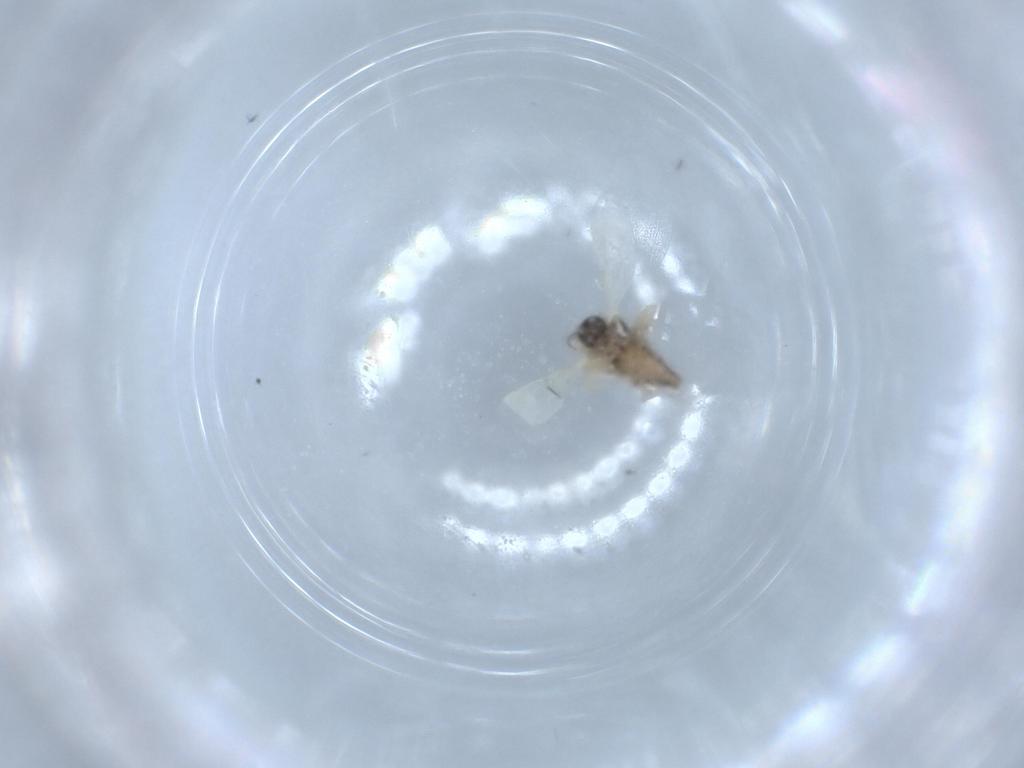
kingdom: Animalia
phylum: Arthropoda
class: Insecta
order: Diptera
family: Ceratopogonidae
